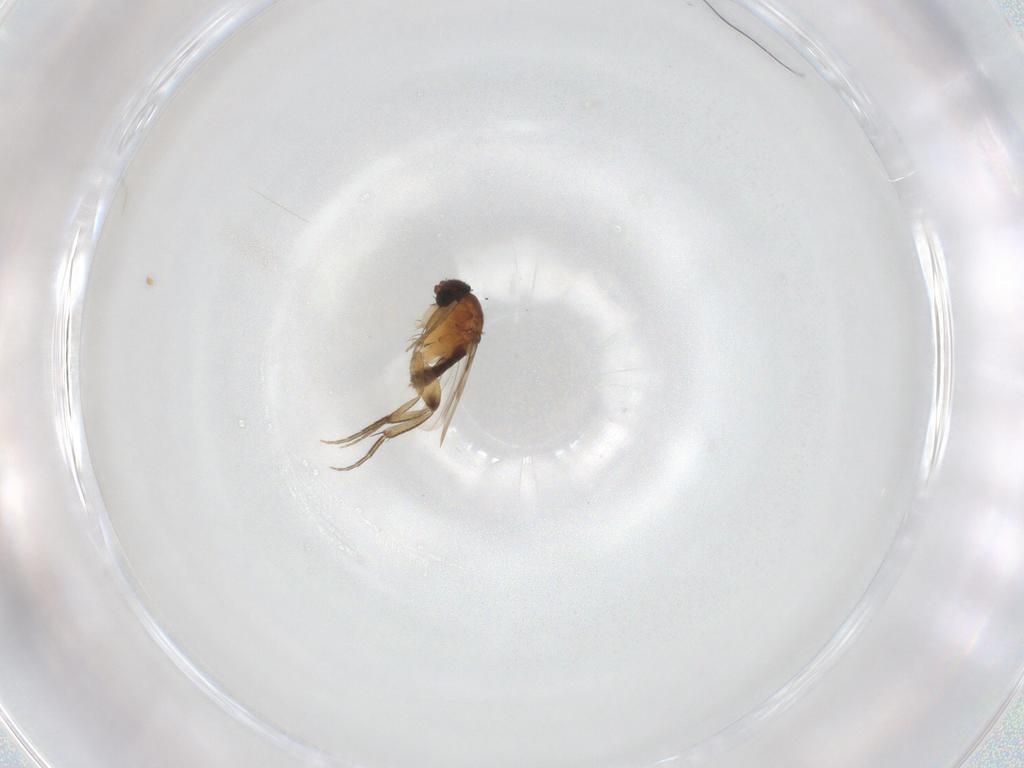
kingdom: Animalia
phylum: Arthropoda
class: Insecta
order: Diptera
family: Phoridae
